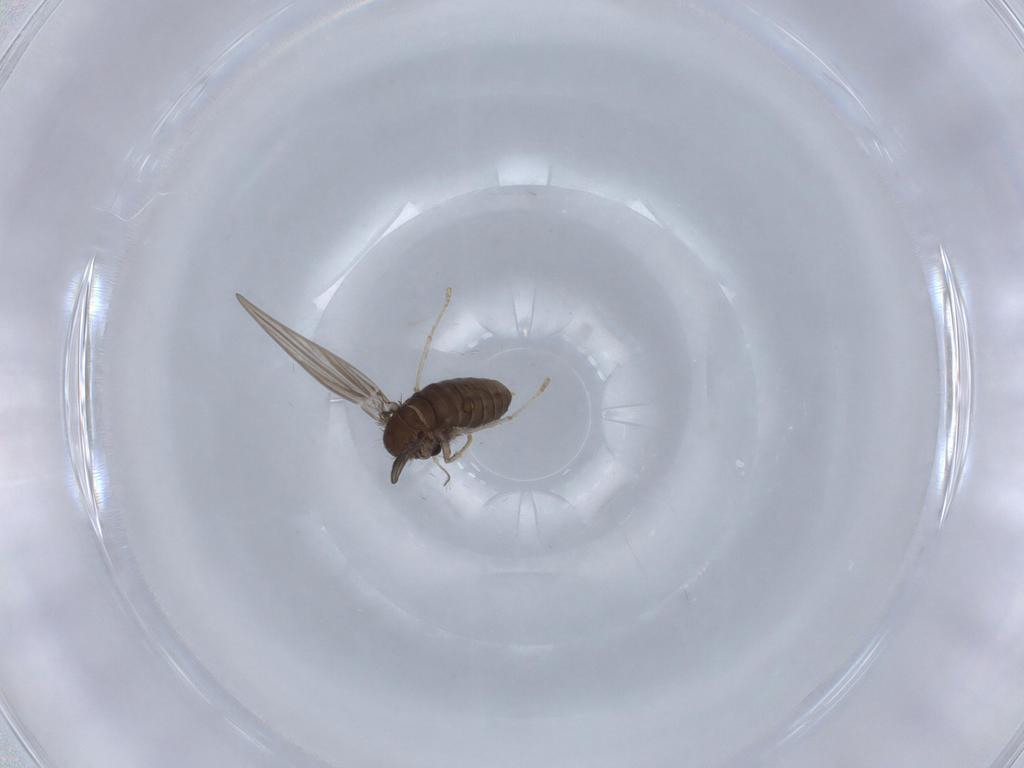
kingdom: Animalia
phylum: Arthropoda
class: Insecta
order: Diptera
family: Psychodidae
